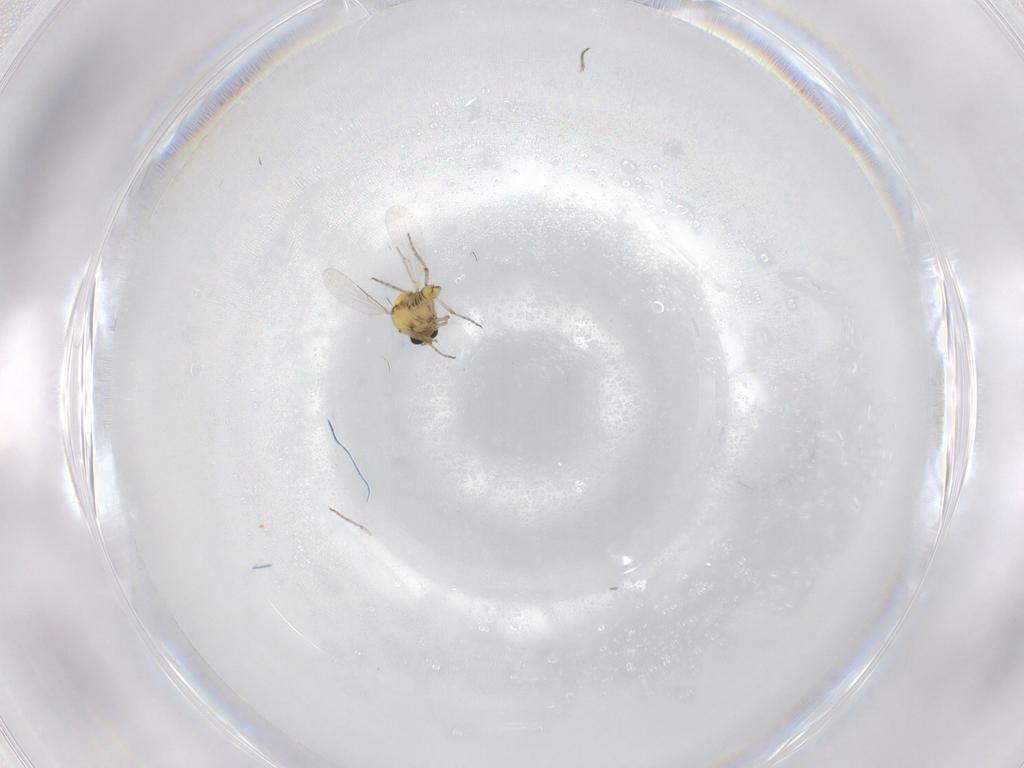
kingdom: Animalia
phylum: Arthropoda
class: Insecta
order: Diptera
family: Ceratopogonidae
